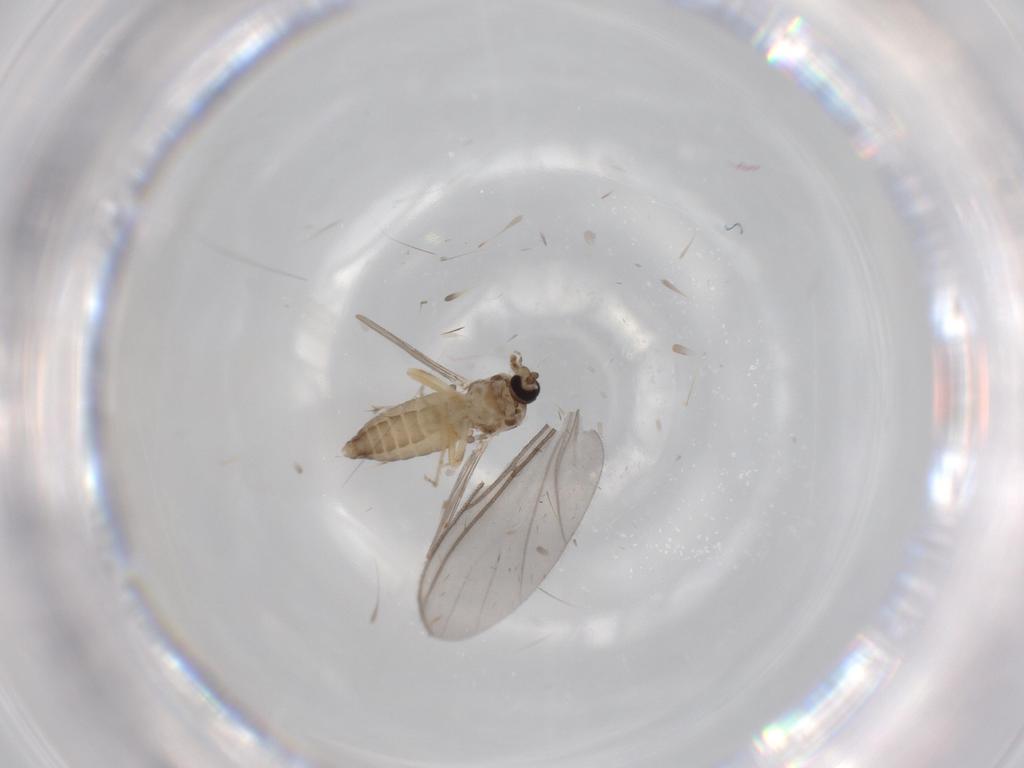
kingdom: Animalia
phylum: Arthropoda
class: Insecta
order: Diptera
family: Ceratopogonidae
